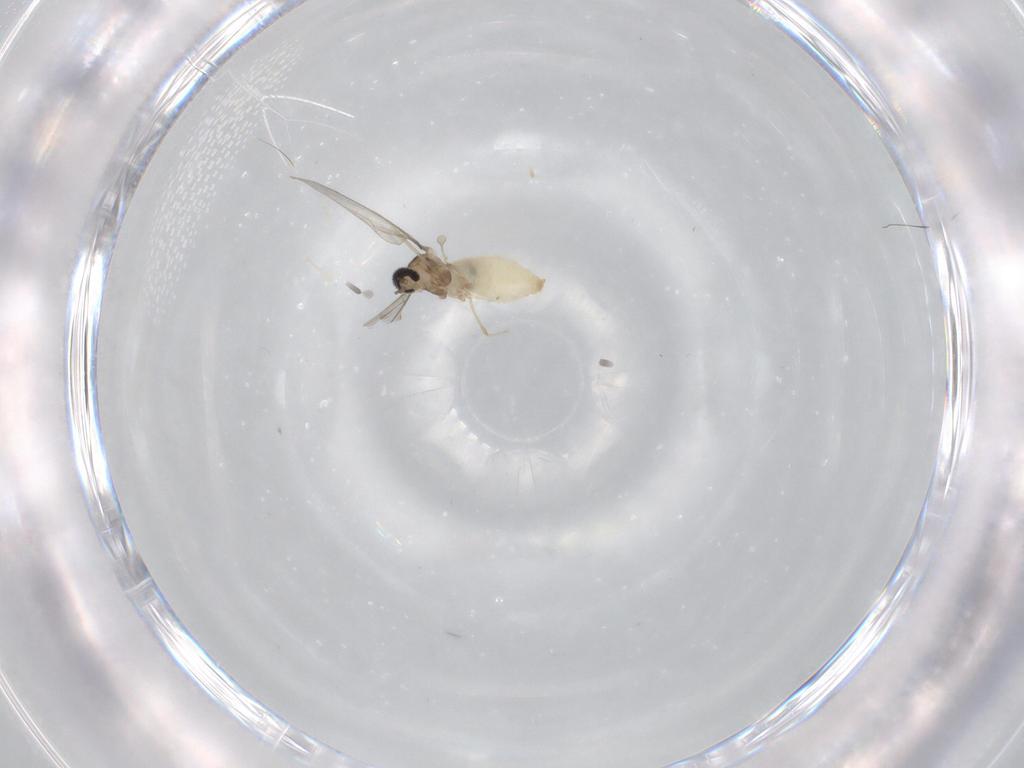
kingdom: Animalia
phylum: Arthropoda
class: Insecta
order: Diptera
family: Cecidomyiidae
